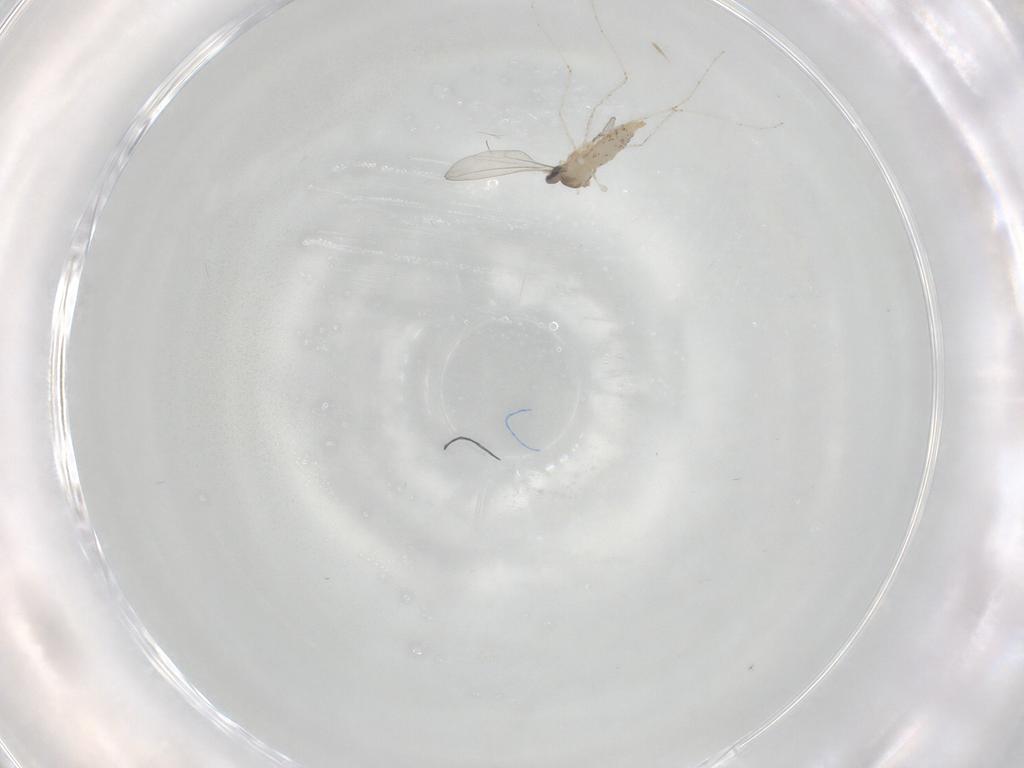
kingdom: Animalia
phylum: Arthropoda
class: Insecta
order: Diptera
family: Cecidomyiidae
